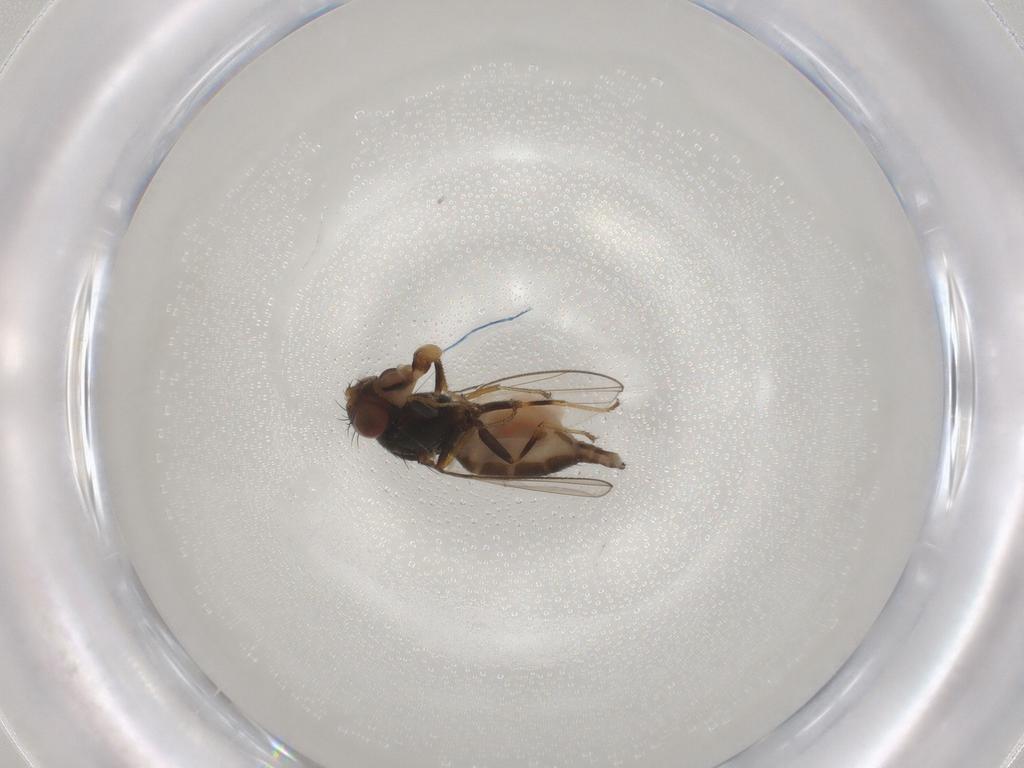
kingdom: Animalia
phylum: Arthropoda
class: Insecta
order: Diptera
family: Ephydridae
